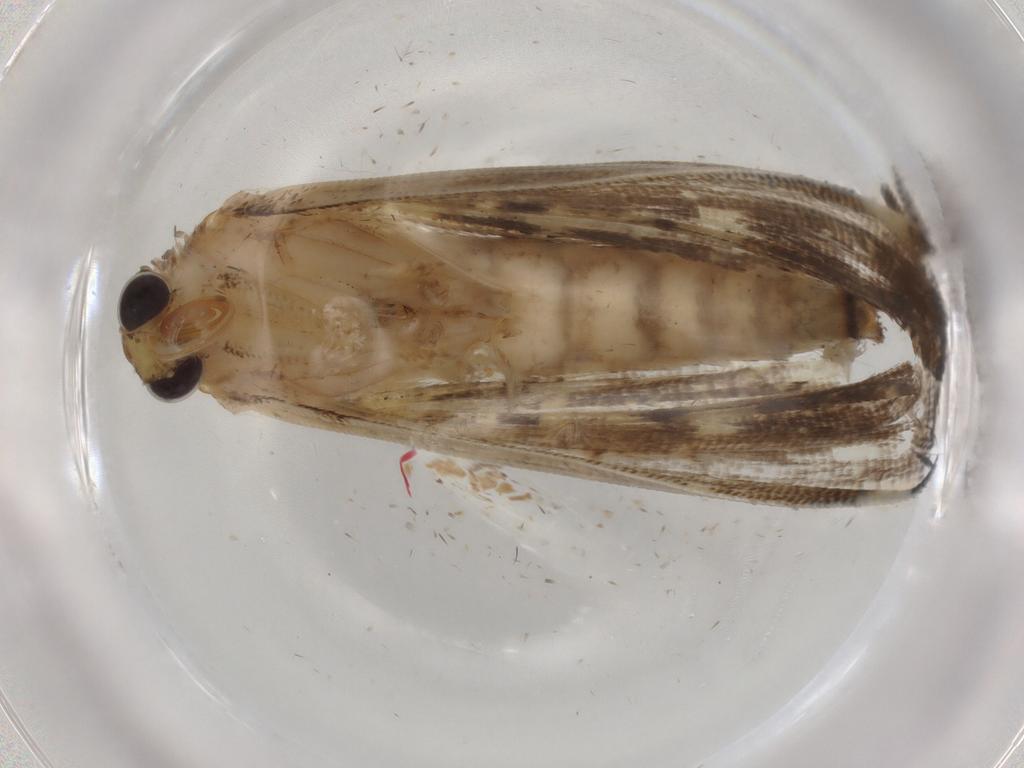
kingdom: Animalia
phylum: Arthropoda
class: Insecta
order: Lepidoptera
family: Crambidae
